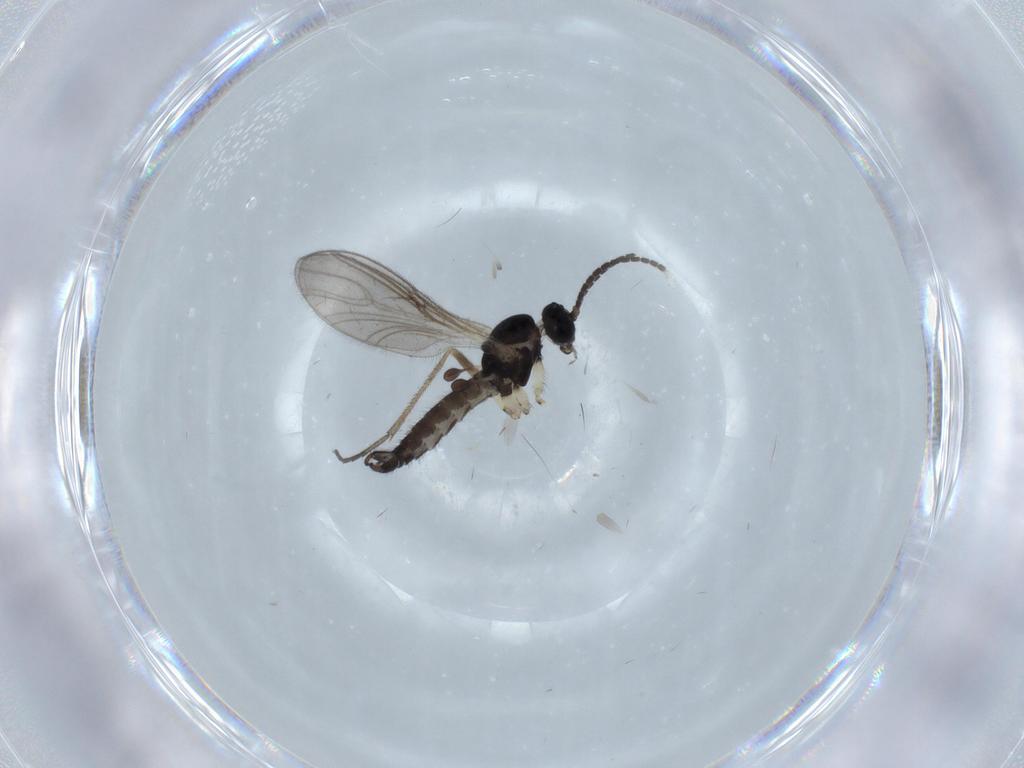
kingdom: Animalia
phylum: Arthropoda
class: Insecta
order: Diptera
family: Sciaridae
